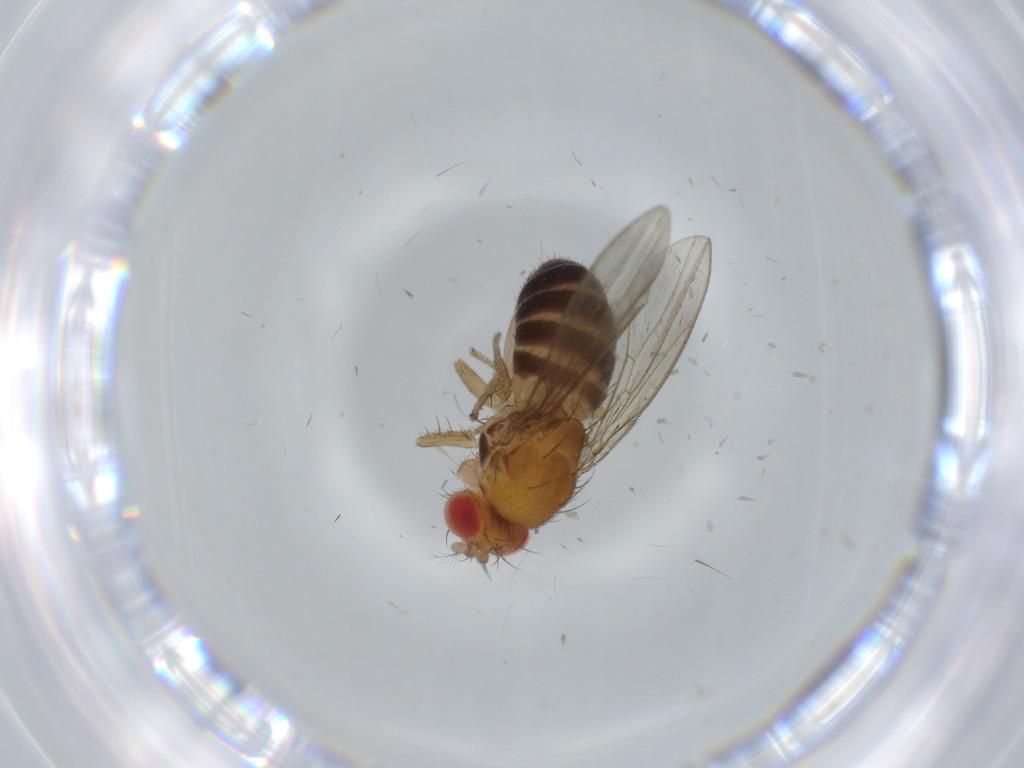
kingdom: Animalia
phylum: Arthropoda
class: Insecta
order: Diptera
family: Drosophilidae
